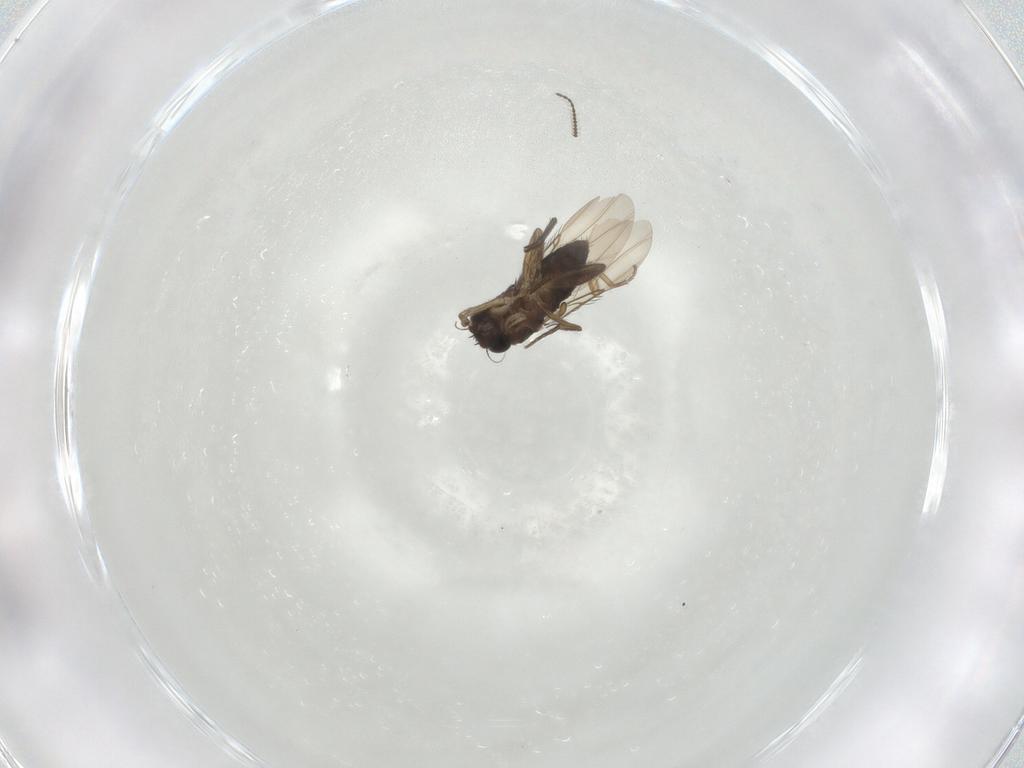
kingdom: Animalia
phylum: Arthropoda
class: Insecta
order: Diptera
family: Phoridae
